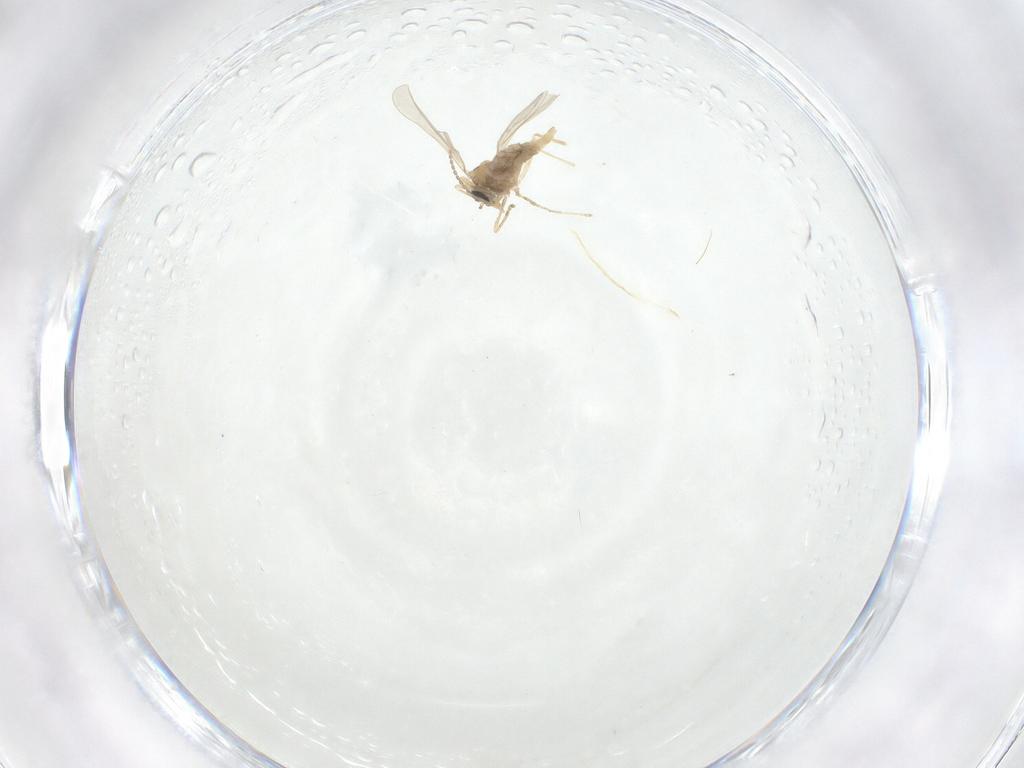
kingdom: Animalia
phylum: Arthropoda
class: Insecta
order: Diptera
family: Cecidomyiidae
